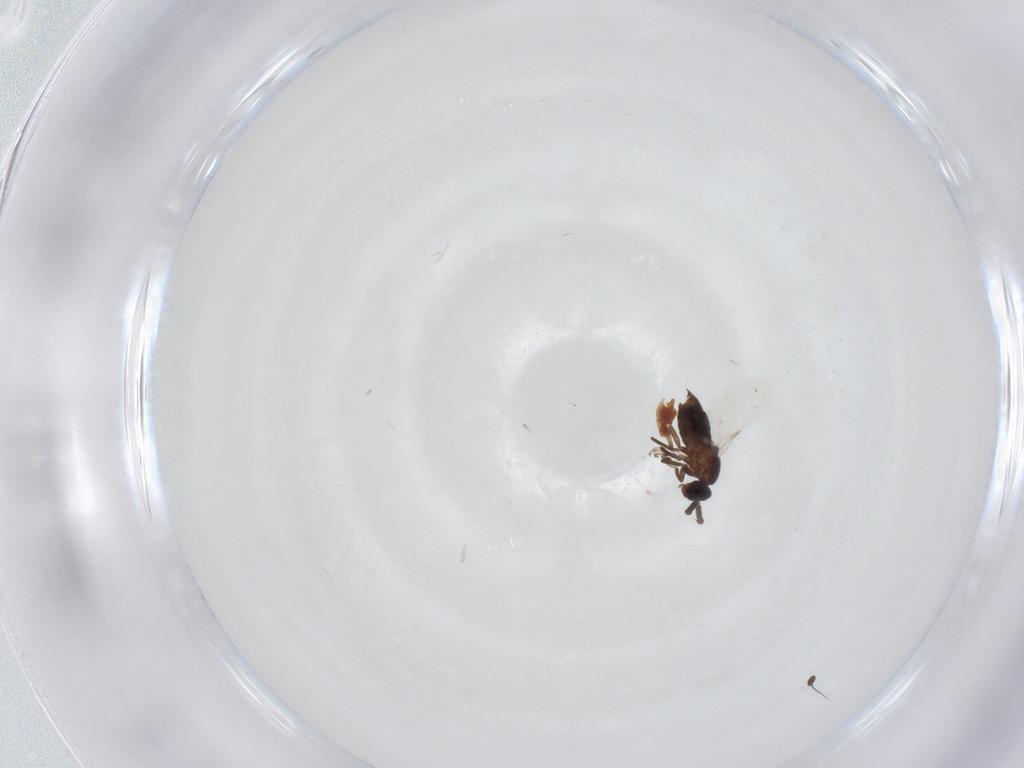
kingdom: Animalia
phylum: Arthropoda
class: Insecta
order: Diptera
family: Scatopsidae
